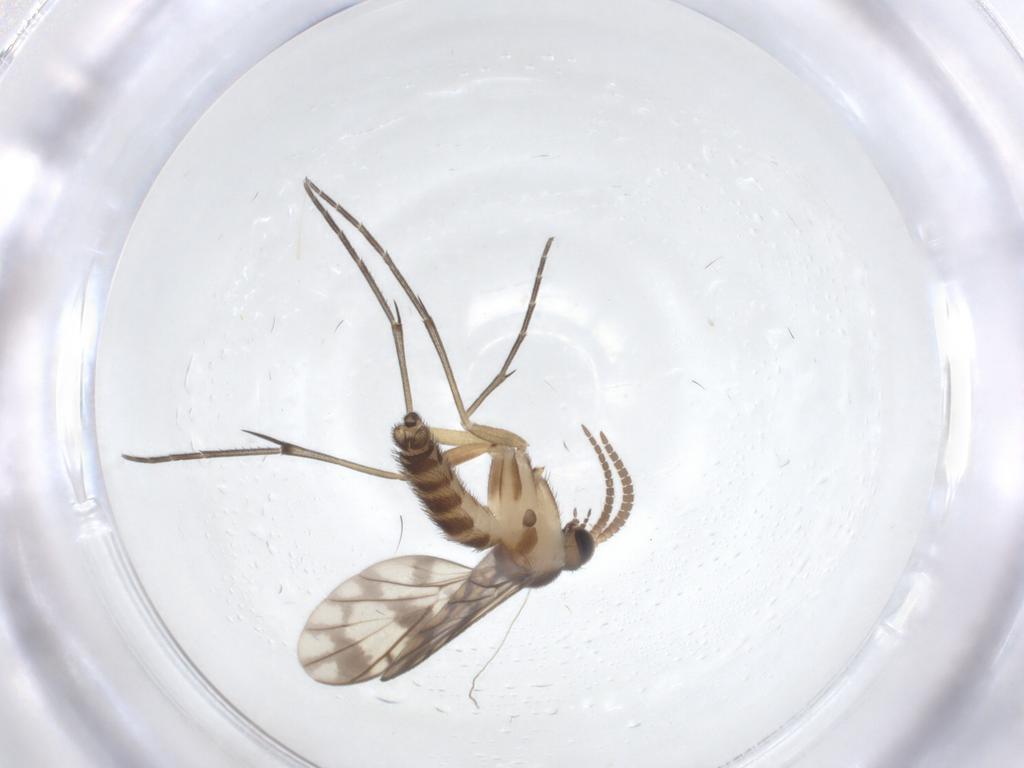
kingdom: Animalia
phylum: Arthropoda
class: Insecta
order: Diptera
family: Keroplatidae
